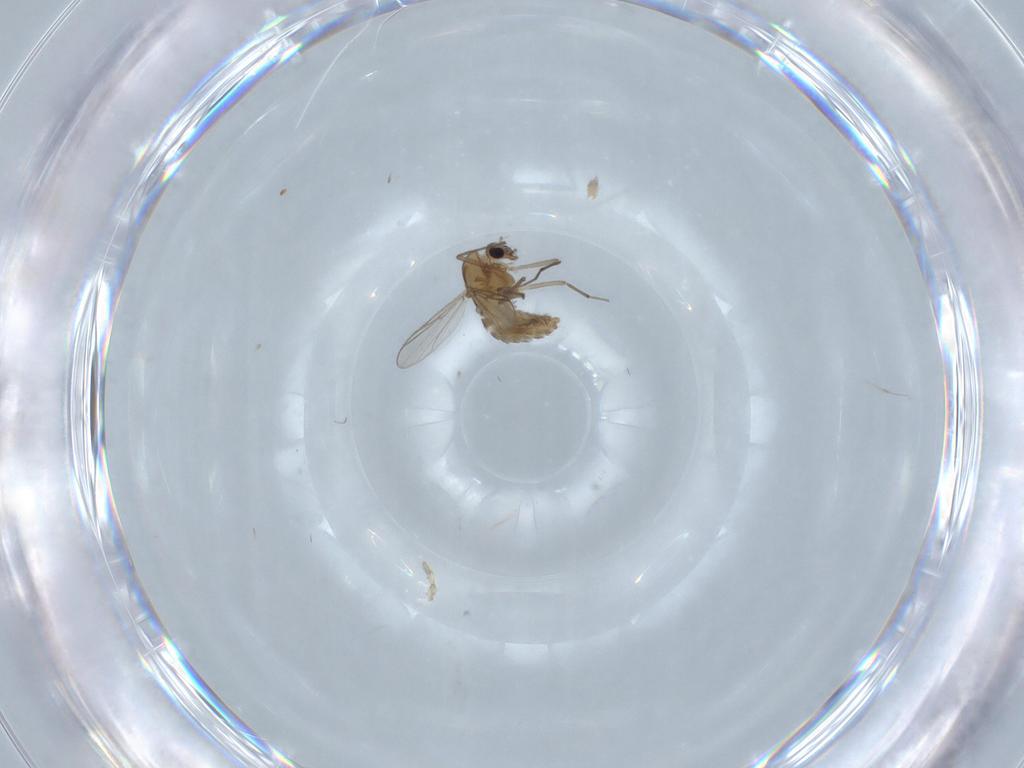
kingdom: Animalia
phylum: Arthropoda
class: Insecta
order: Diptera
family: Chironomidae
